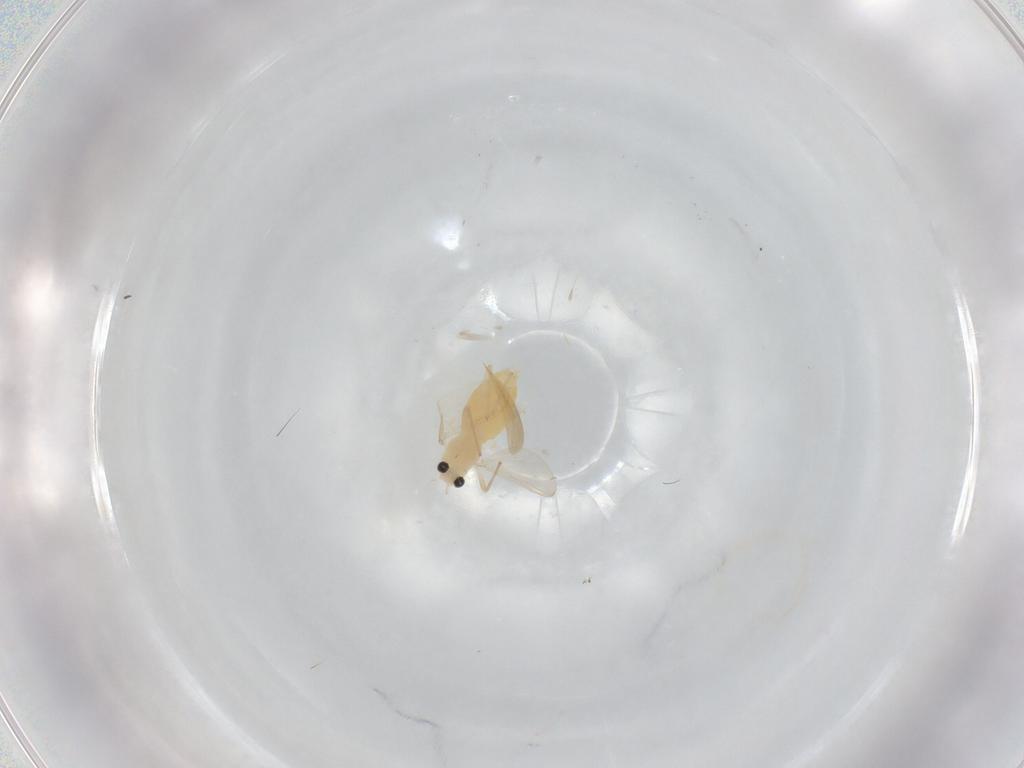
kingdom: Animalia
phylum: Arthropoda
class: Insecta
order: Diptera
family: Chironomidae
